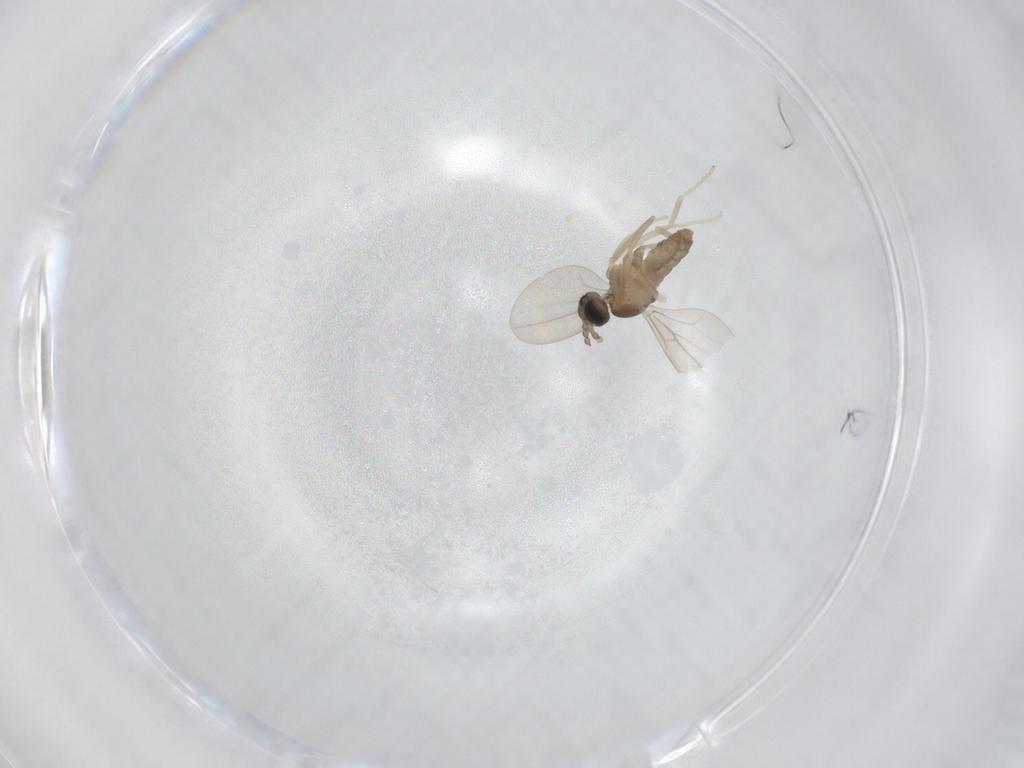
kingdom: Animalia
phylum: Arthropoda
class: Insecta
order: Diptera
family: Cecidomyiidae
